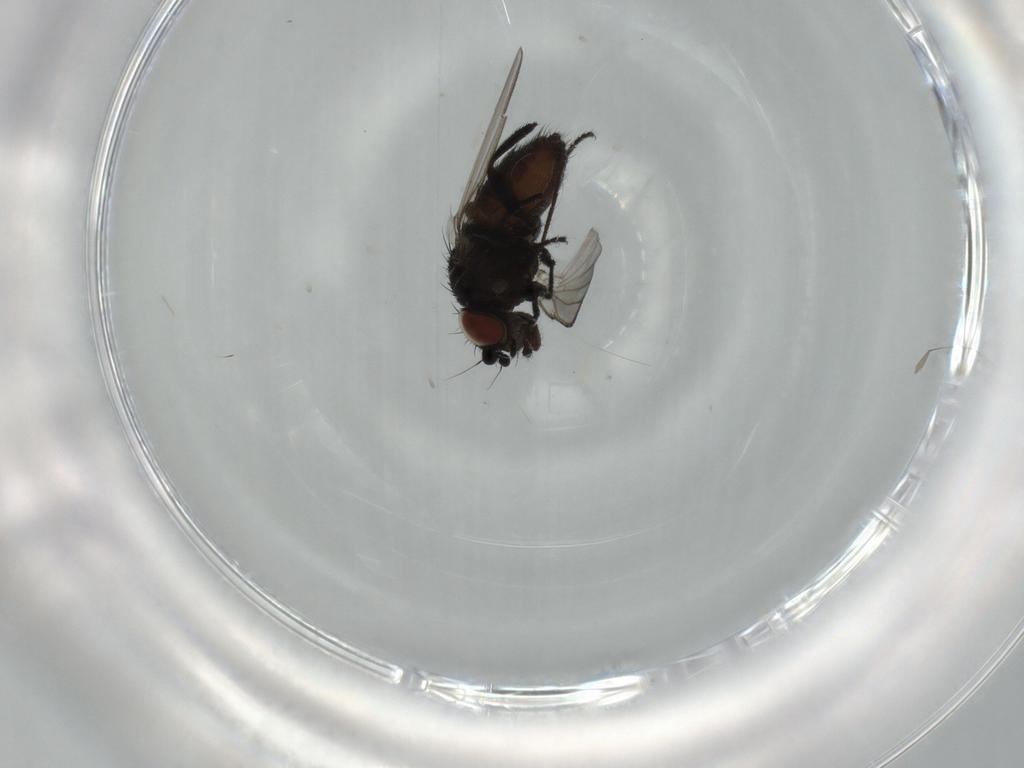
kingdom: Animalia
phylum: Arthropoda
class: Insecta
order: Diptera
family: Milichiidae
